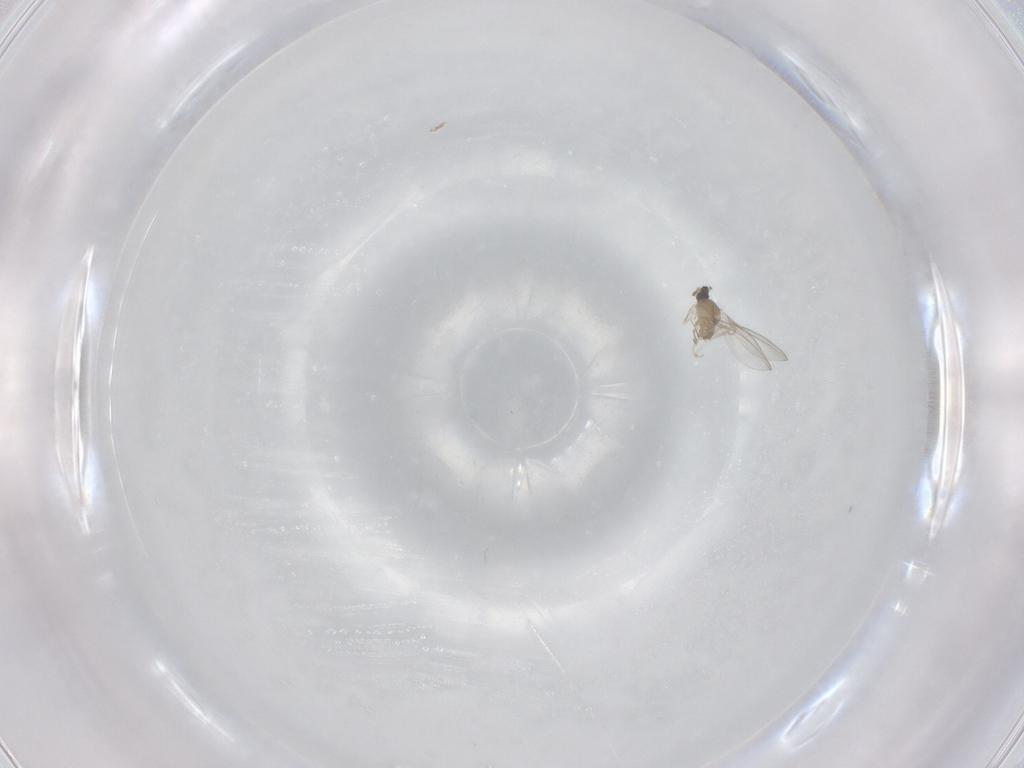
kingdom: Animalia
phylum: Arthropoda
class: Insecta
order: Diptera
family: Cecidomyiidae
